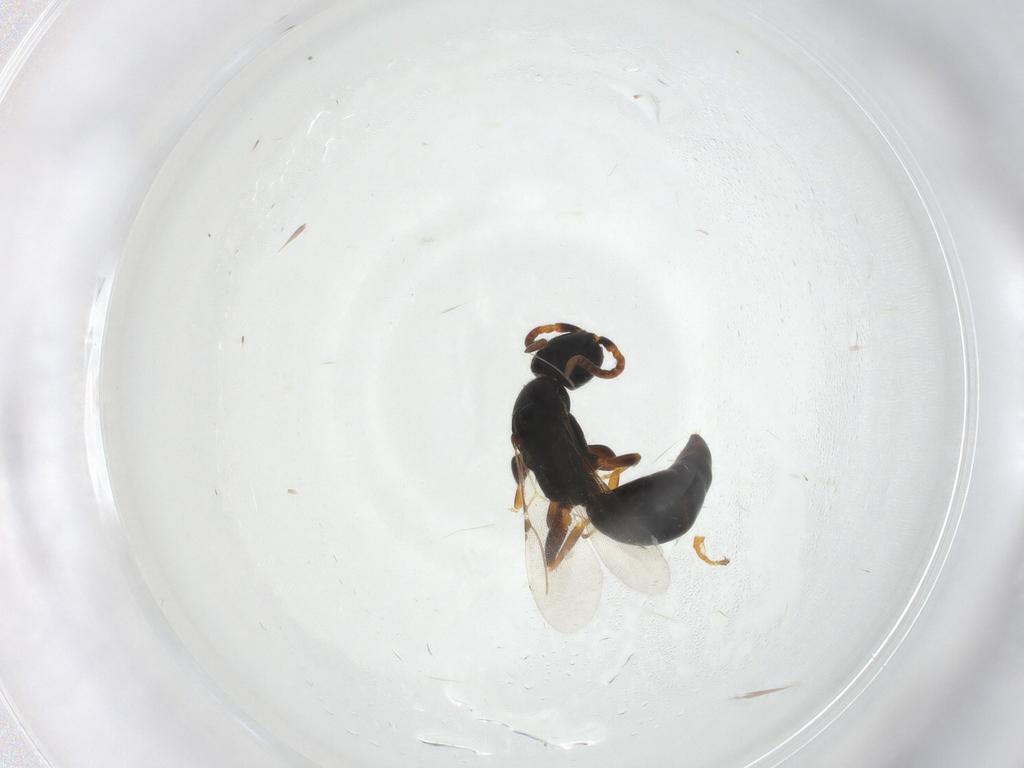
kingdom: Animalia
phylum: Arthropoda
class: Insecta
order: Hymenoptera
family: Bethylidae
